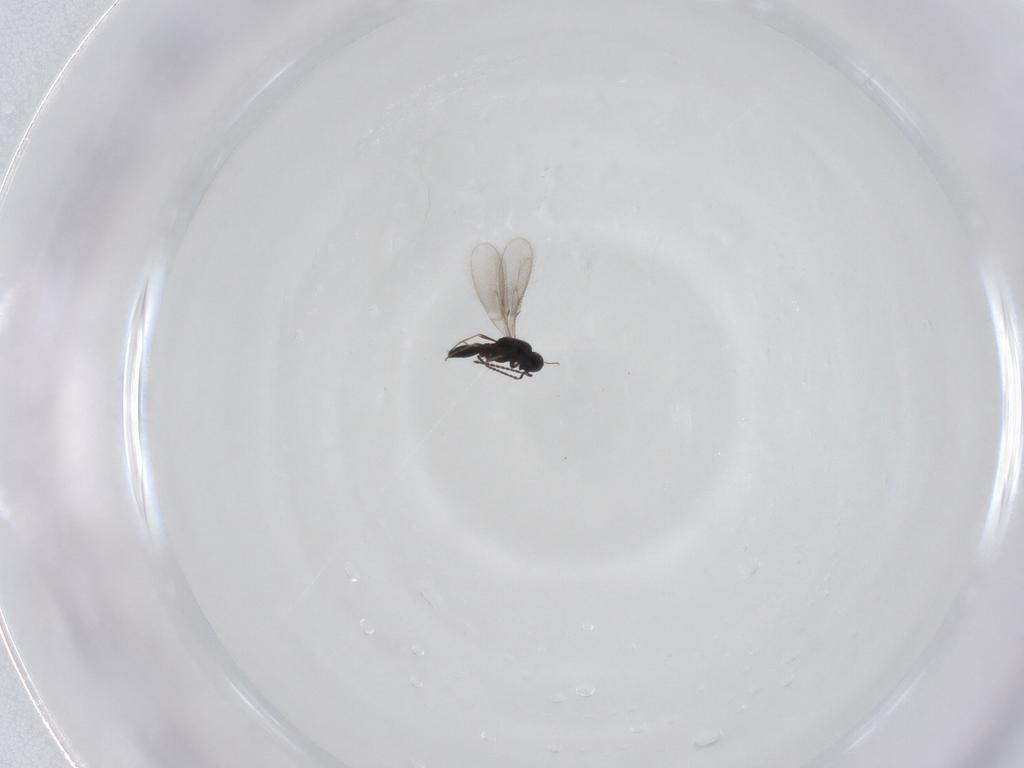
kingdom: Animalia
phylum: Arthropoda
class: Insecta
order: Hymenoptera
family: Scelionidae
